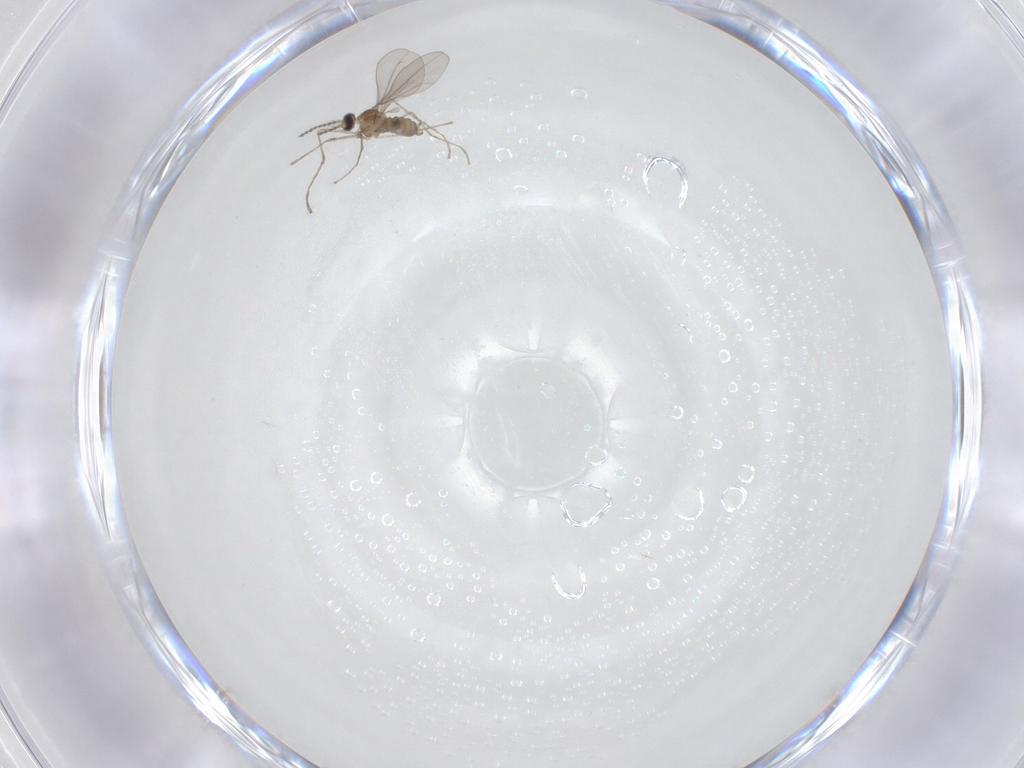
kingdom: Animalia
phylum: Arthropoda
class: Insecta
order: Diptera
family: Cecidomyiidae
